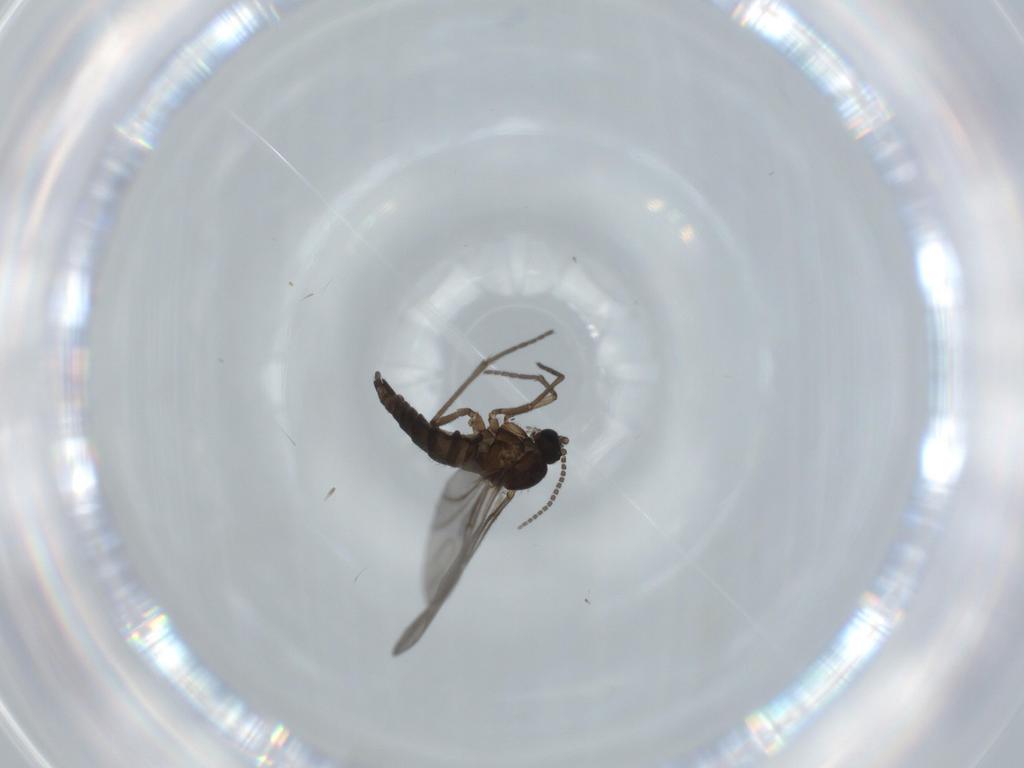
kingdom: Animalia
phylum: Arthropoda
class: Insecta
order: Diptera
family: Sciaridae
